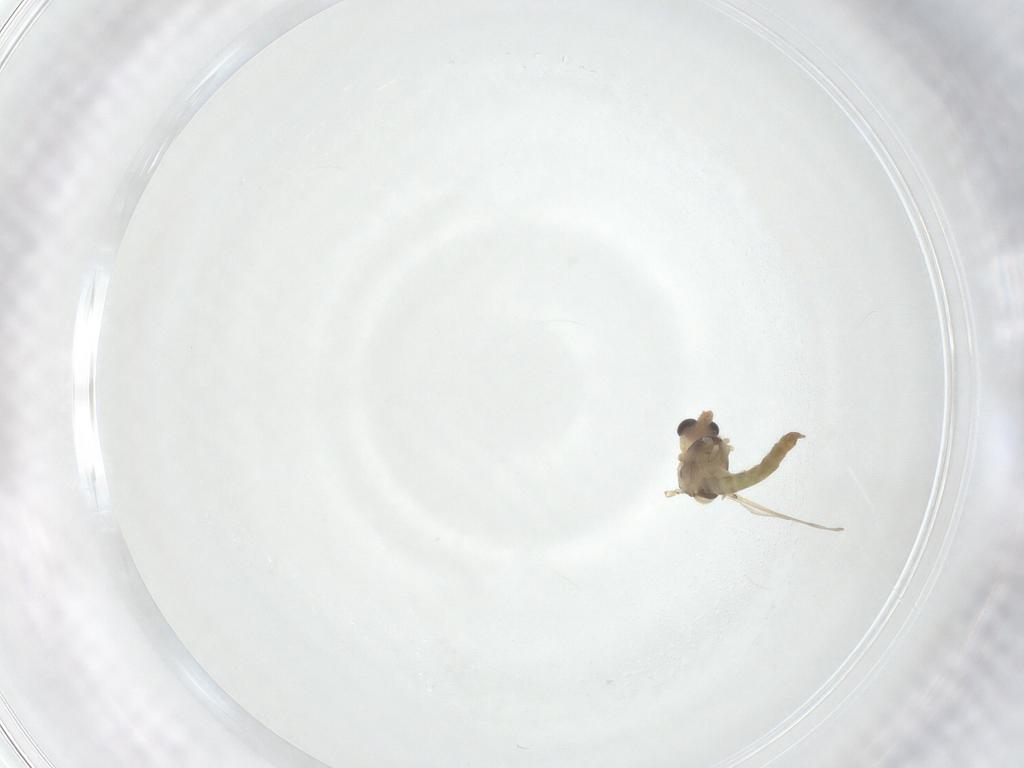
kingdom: Animalia
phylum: Arthropoda
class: Insecta
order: Diptera
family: Chironomidae
